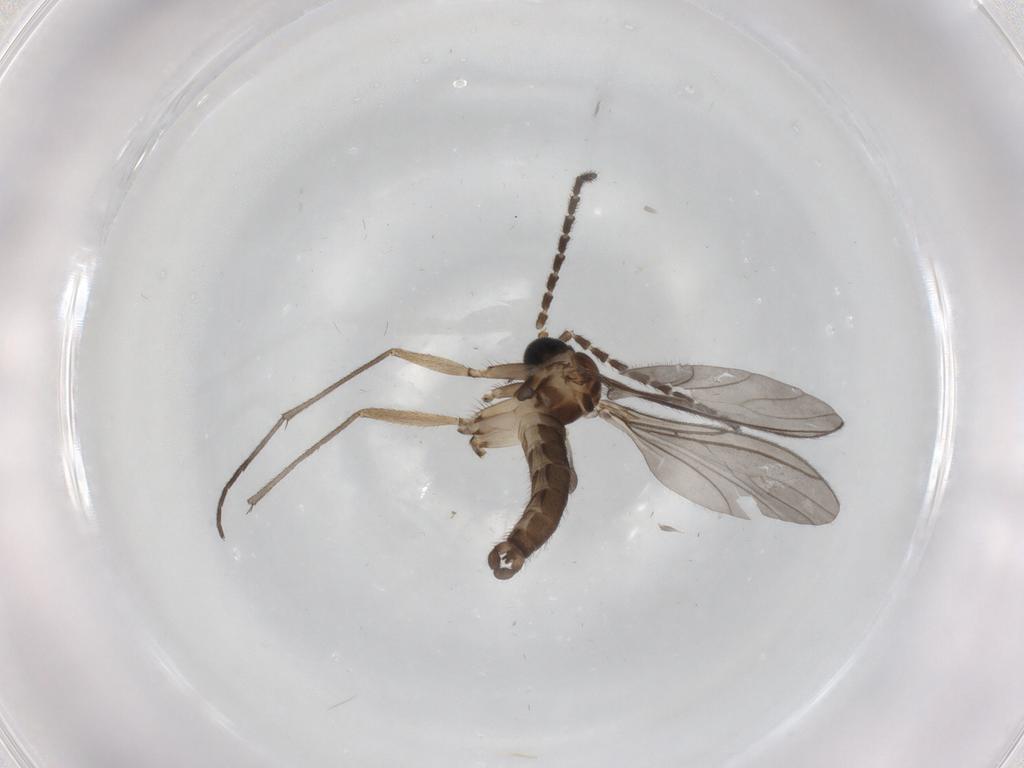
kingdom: Animalia
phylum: Arthropoda
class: Insecta
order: Diptera
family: Sciaridae
